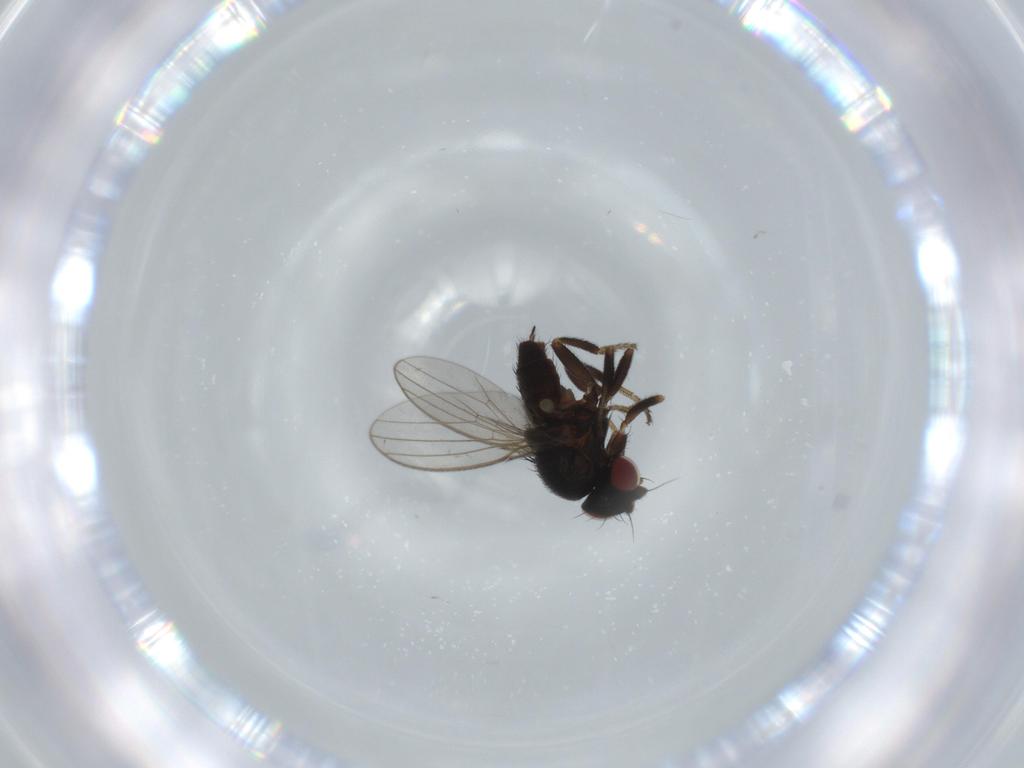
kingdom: Animalia
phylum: Arthropoda
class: Insecta
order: Diptera
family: Milichiidae
